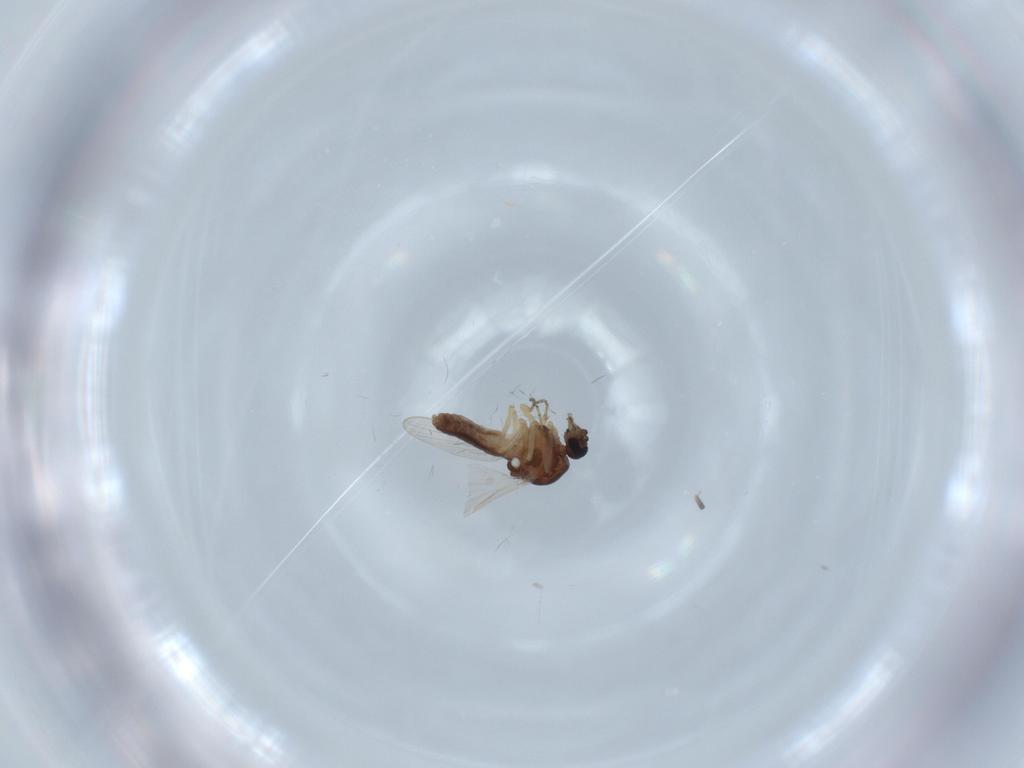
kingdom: Animalia
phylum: Arthropoda
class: Insecta
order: Diptera
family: Ceratopogonidae
